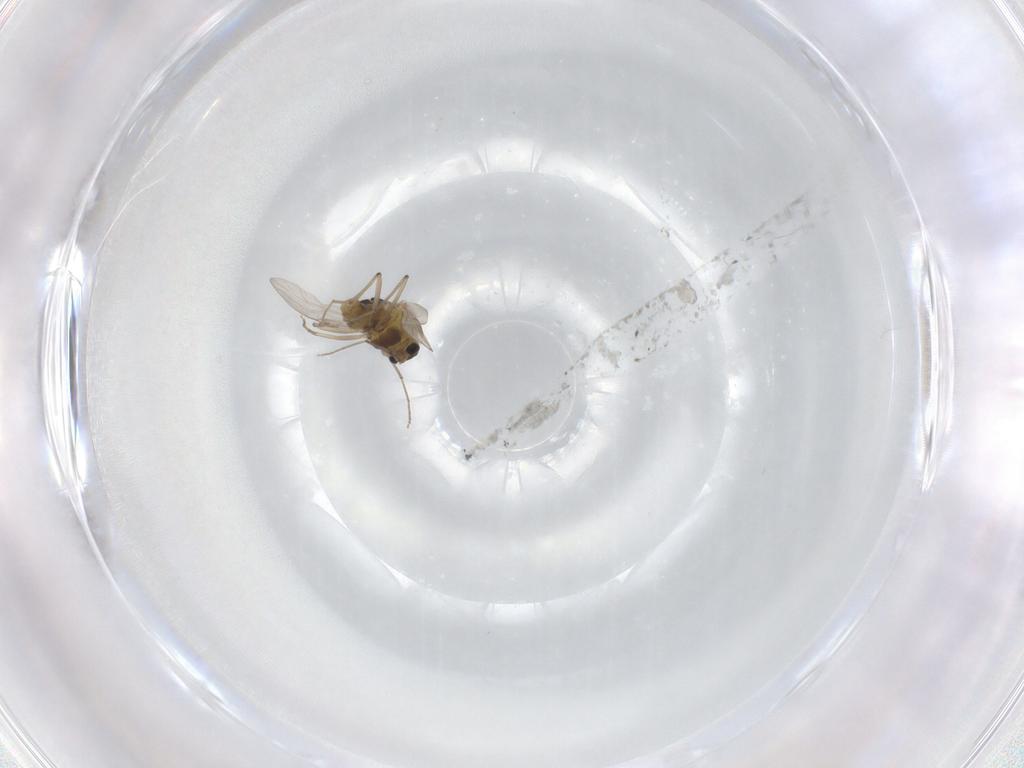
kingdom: Animalia
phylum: Arthropoda
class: Insecta
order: Diptera
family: Chironomidae
